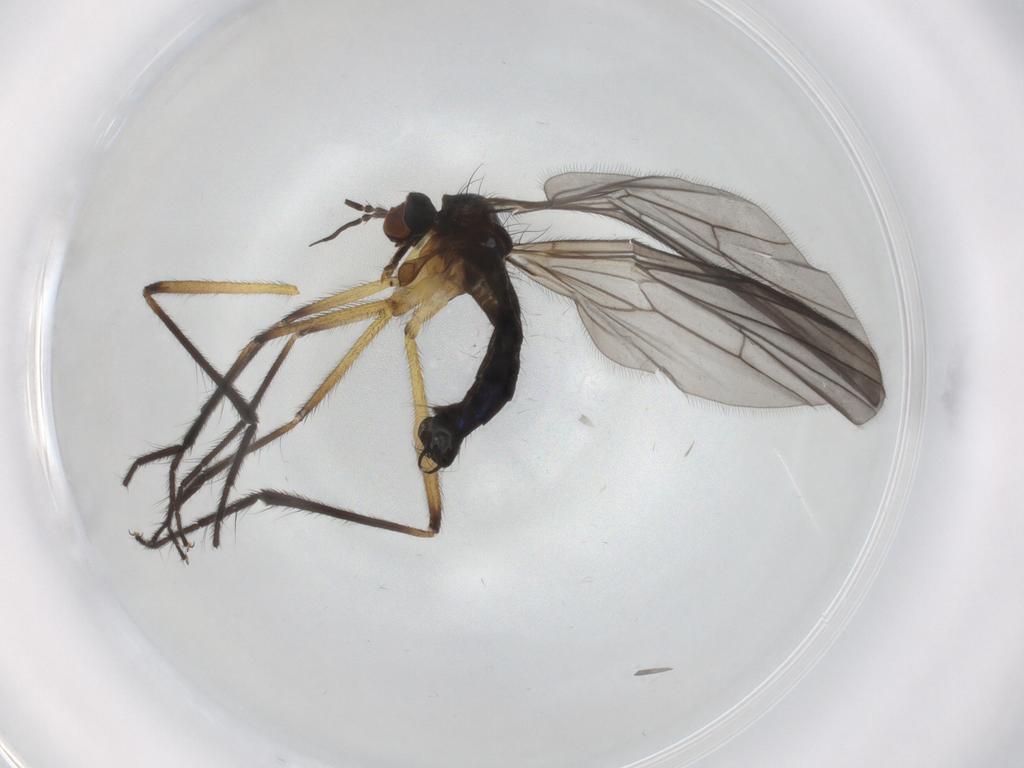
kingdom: Animalia
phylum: Arthropoda
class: Insecta
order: Diptera
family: Empididae
